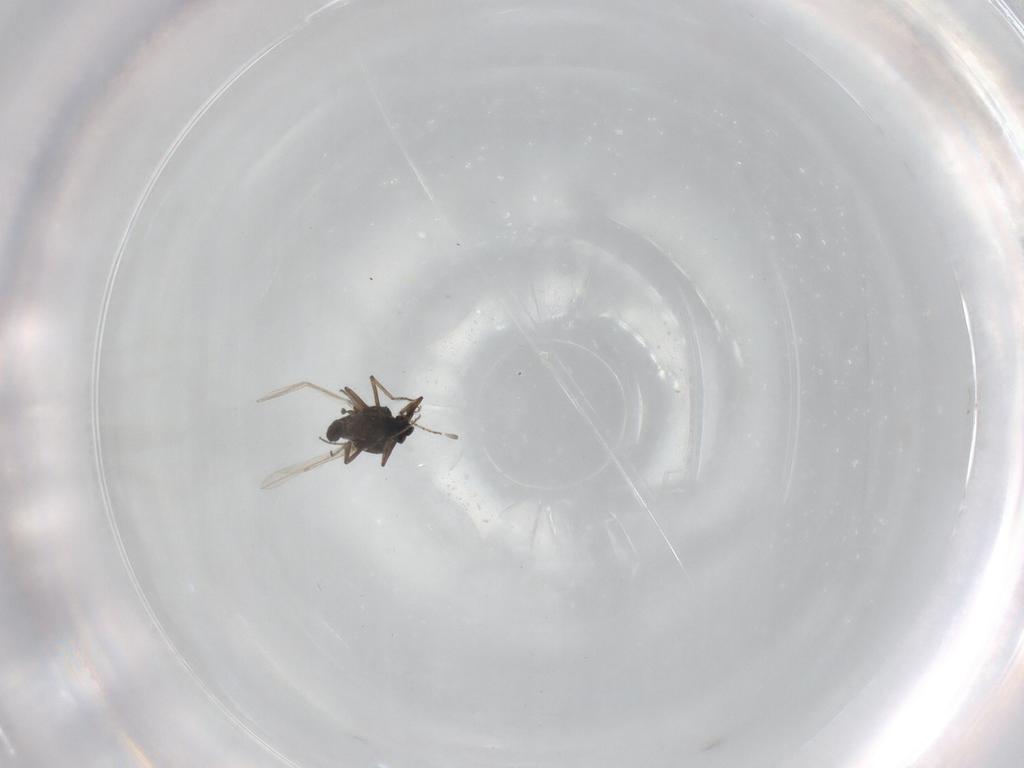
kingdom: Animalia
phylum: Arthropoda
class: Insecta
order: Diptera
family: Ceratopogonidae
